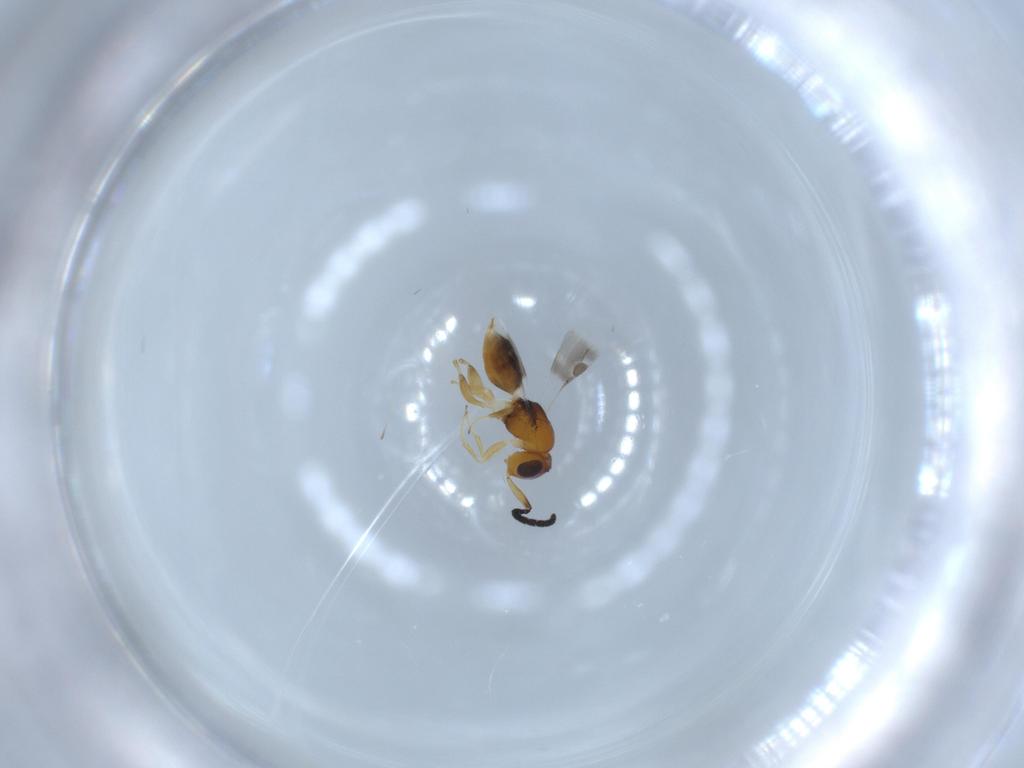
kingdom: Animalia
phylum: Arthropoda
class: Insecta
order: Hymenoptera
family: Megaspilidae
